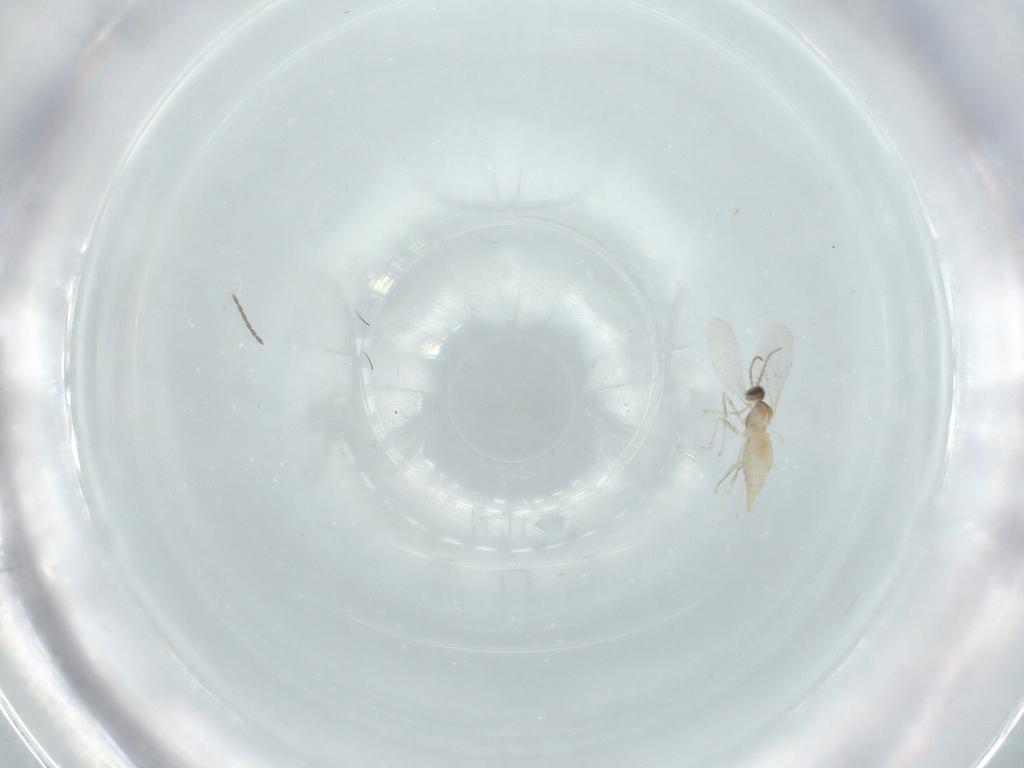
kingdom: Animalia
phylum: Arthropoda
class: Insecta
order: Diptera
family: Cecidomyiidae
